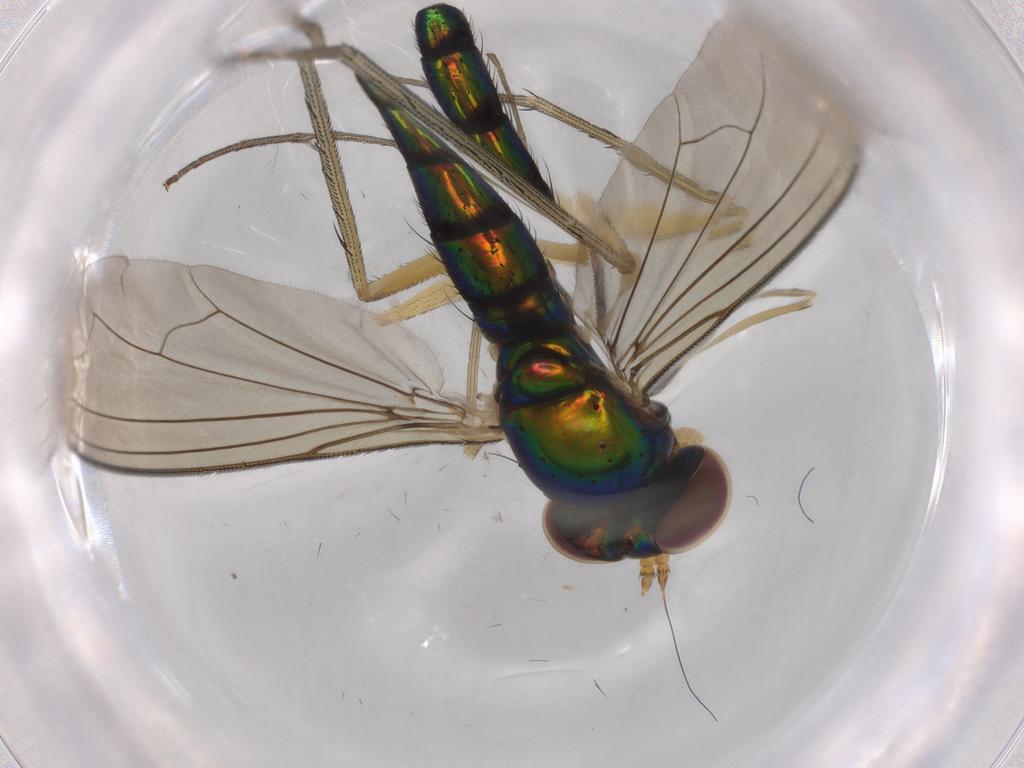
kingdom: Animalia
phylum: Arthropoda
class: Insecta
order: Diptera
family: Dolichopodidae
